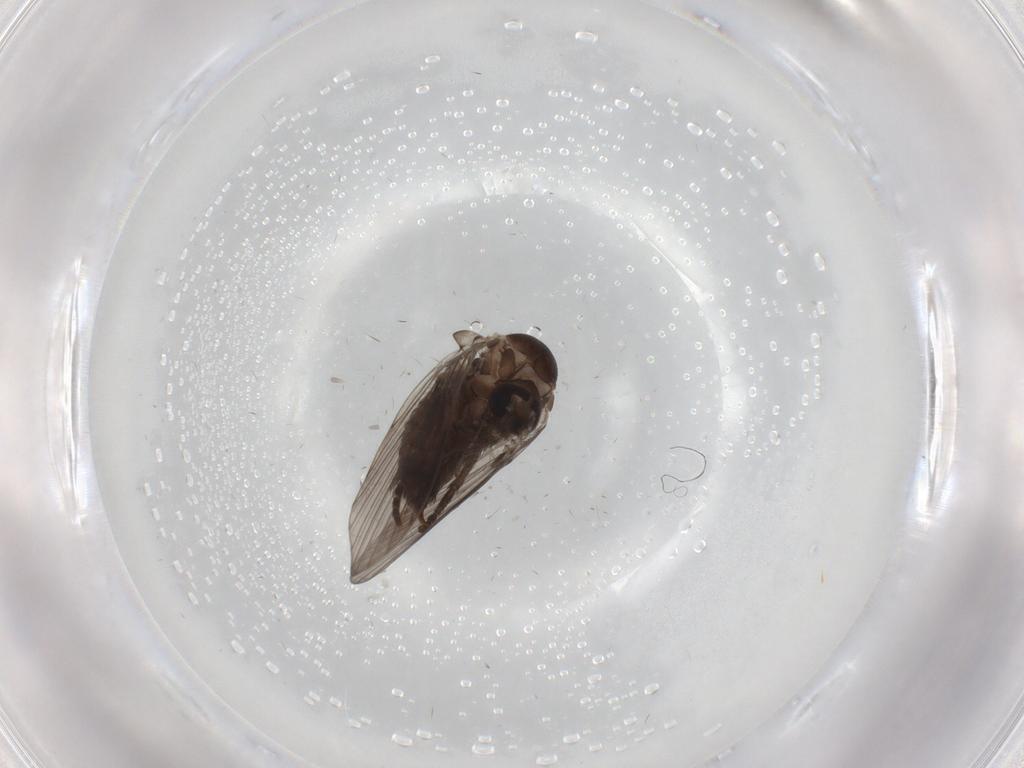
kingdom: Animalia
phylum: Arthropoda
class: Insecta
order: Diptera
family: Psychodidae
